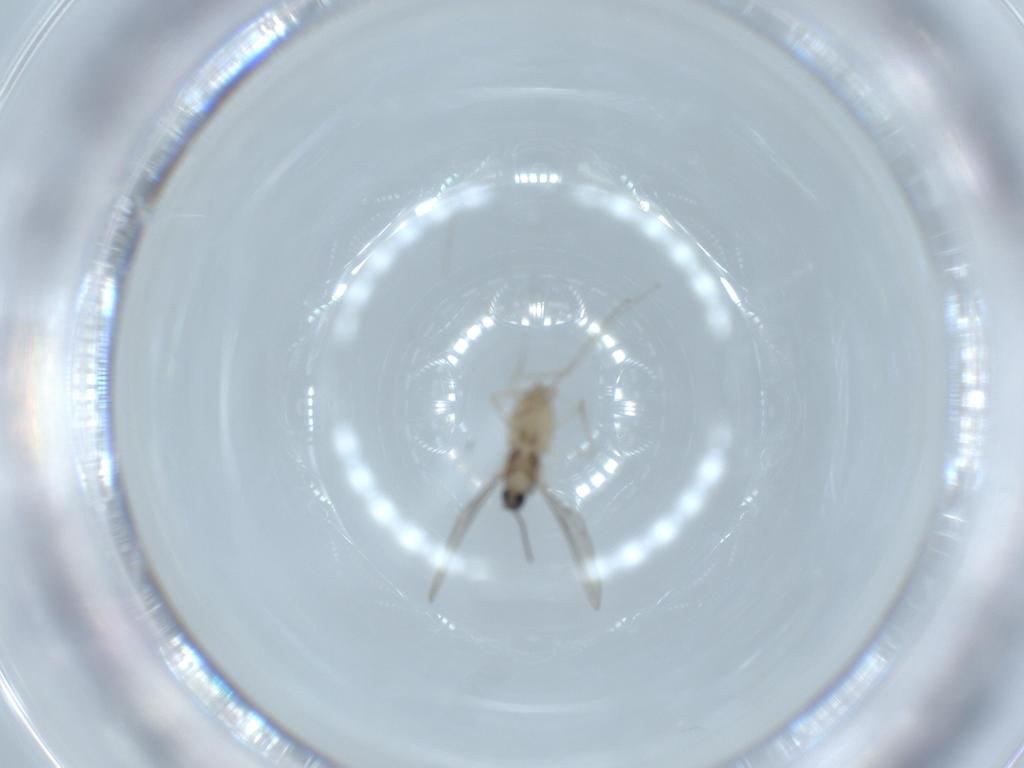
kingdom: Animalia
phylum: Arthropoda
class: Insecta
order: Diptera
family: Cecidomyiidae
